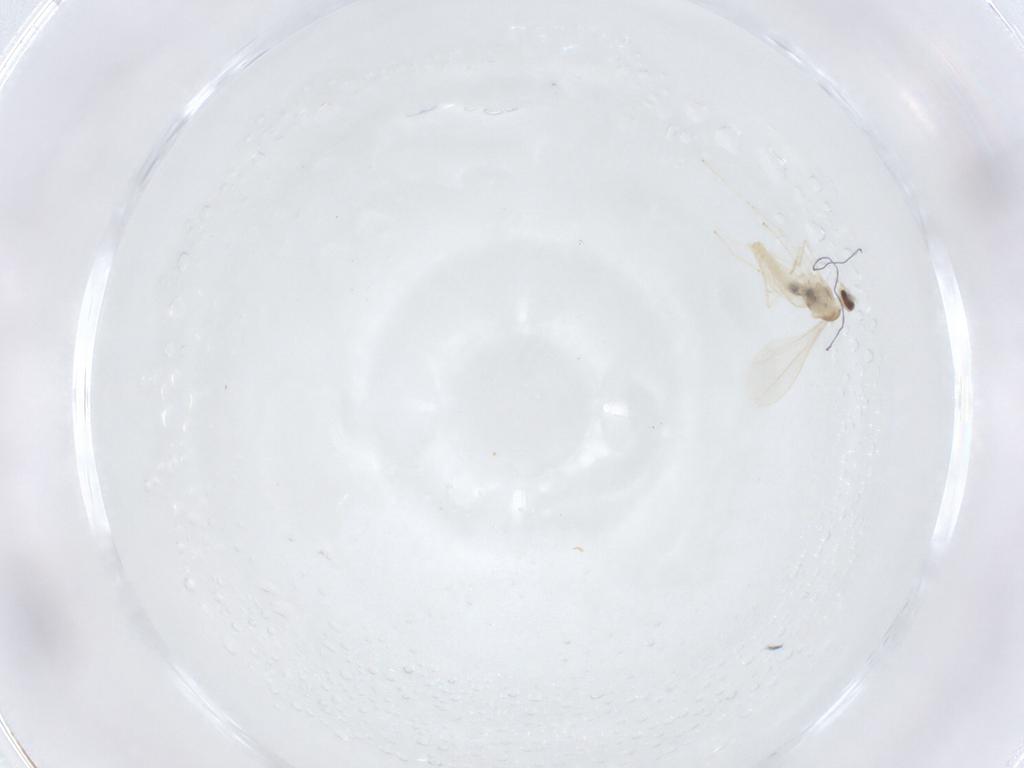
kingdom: Animalia
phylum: Arthropoda
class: Insecta
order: Diptera
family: Cecidomyiidae
